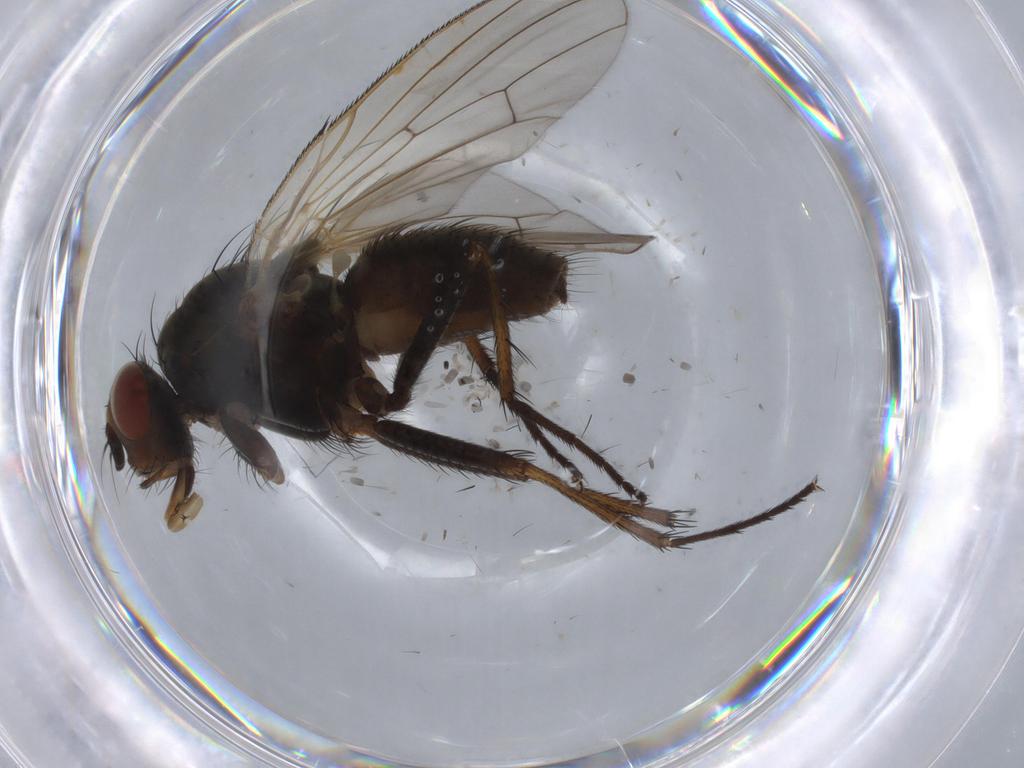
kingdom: Animalia
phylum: Arthropoda
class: Insecta
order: Diptera
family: Anthomyiidae
